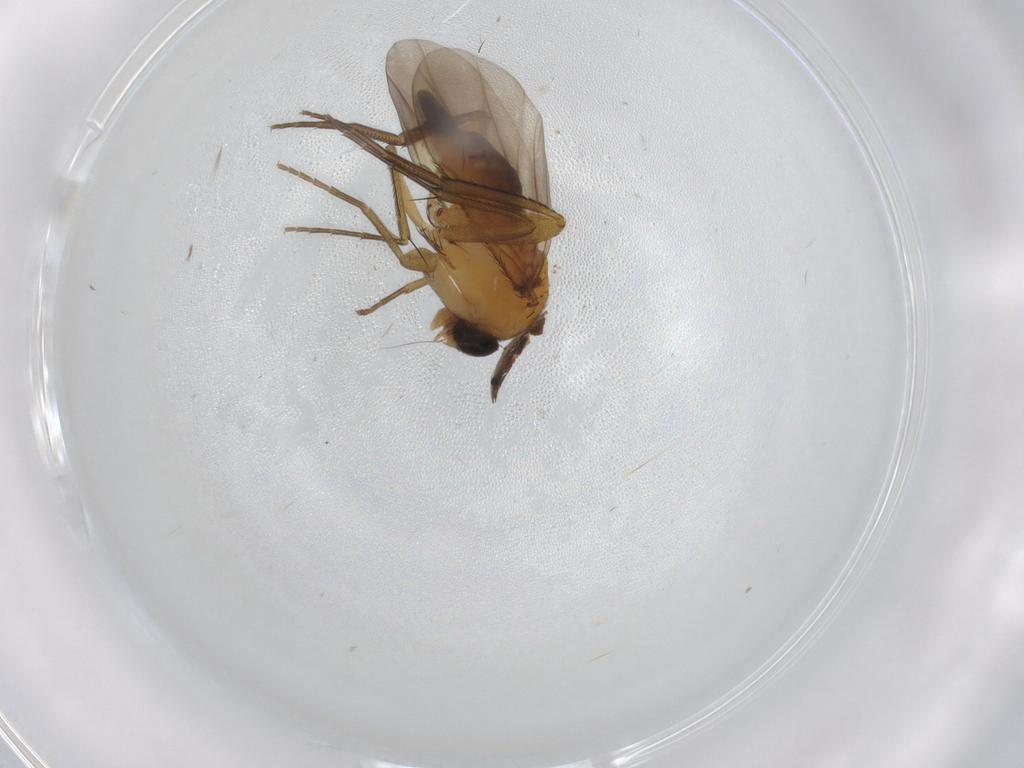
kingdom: Animalia
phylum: Arthropoda
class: Insecta
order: Diptera
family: Phoridae
